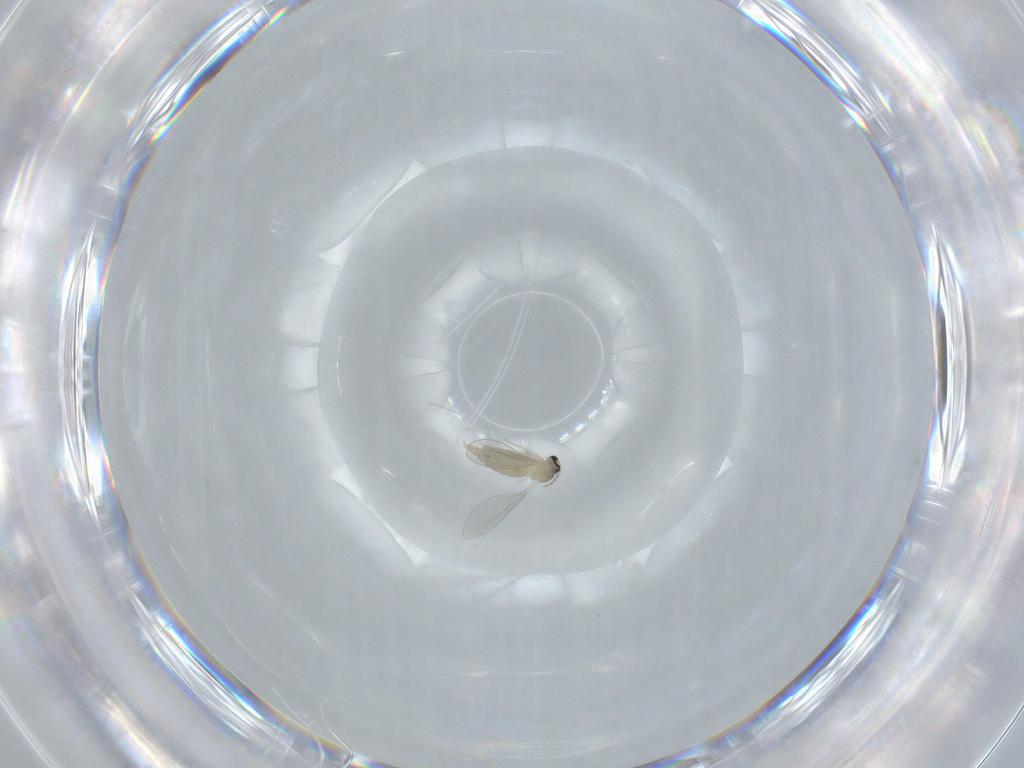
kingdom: Animalia
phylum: Arthropoda
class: Insecta
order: Diptera
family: Cecidomyiidae
